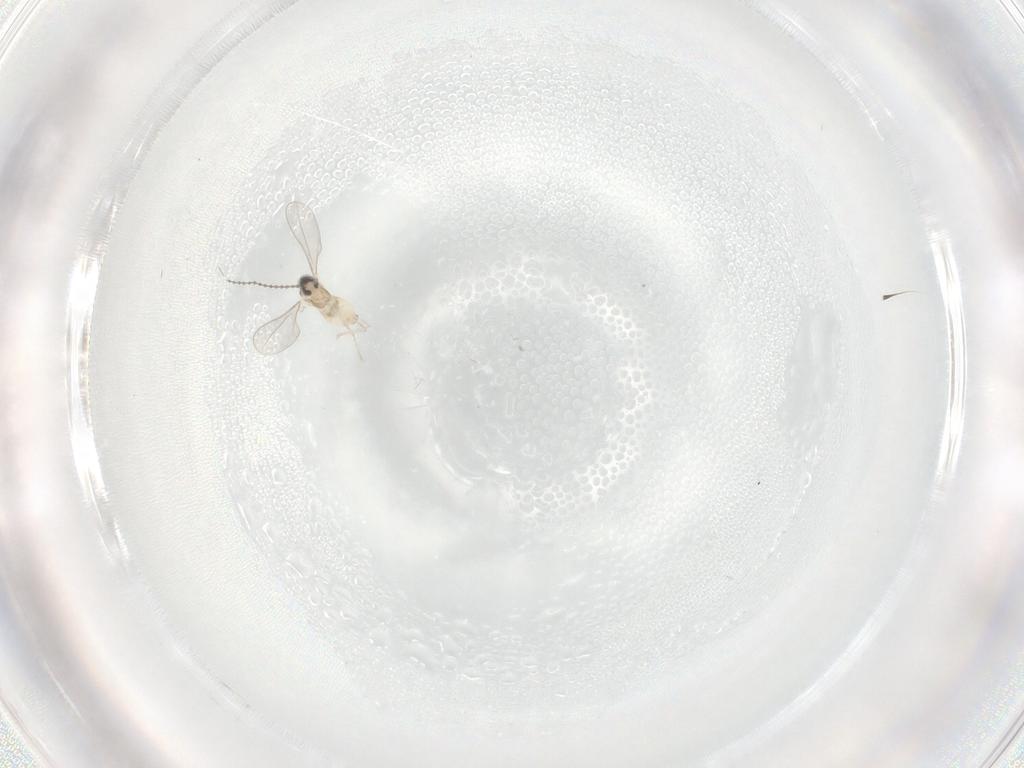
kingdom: Animalia
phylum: Arthropoda
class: Insecta
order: Diptera
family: Cecidomyiidae
